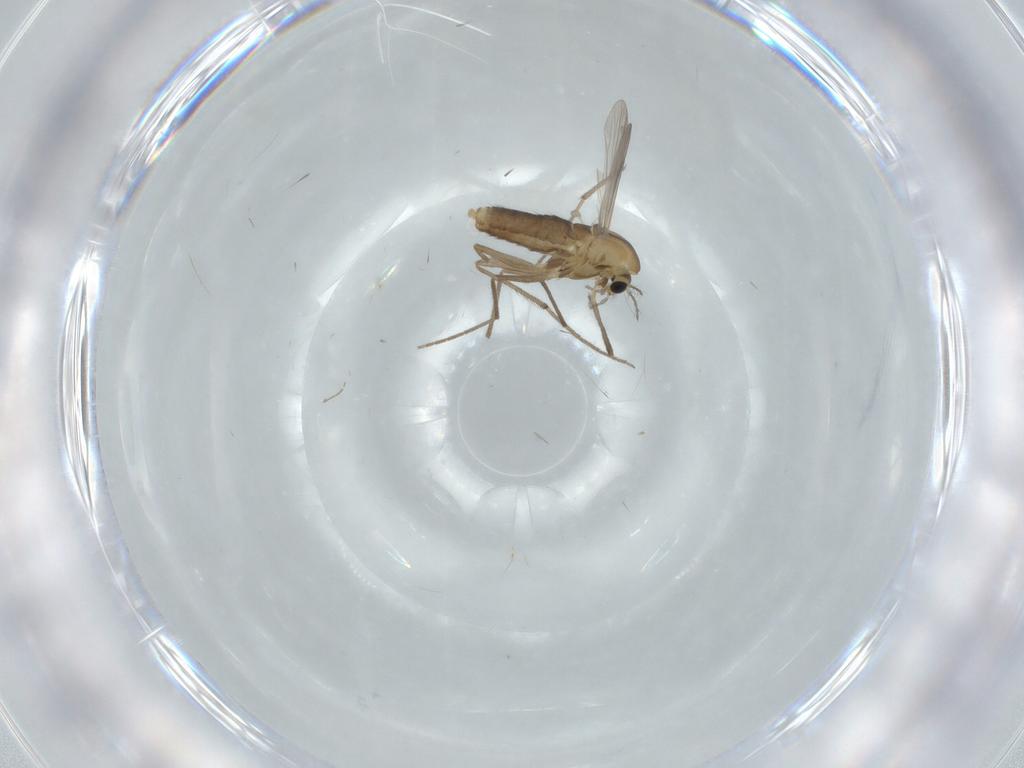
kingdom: Animalia
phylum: Arthropoda
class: Insecta
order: Diptera
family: Chironomidae
